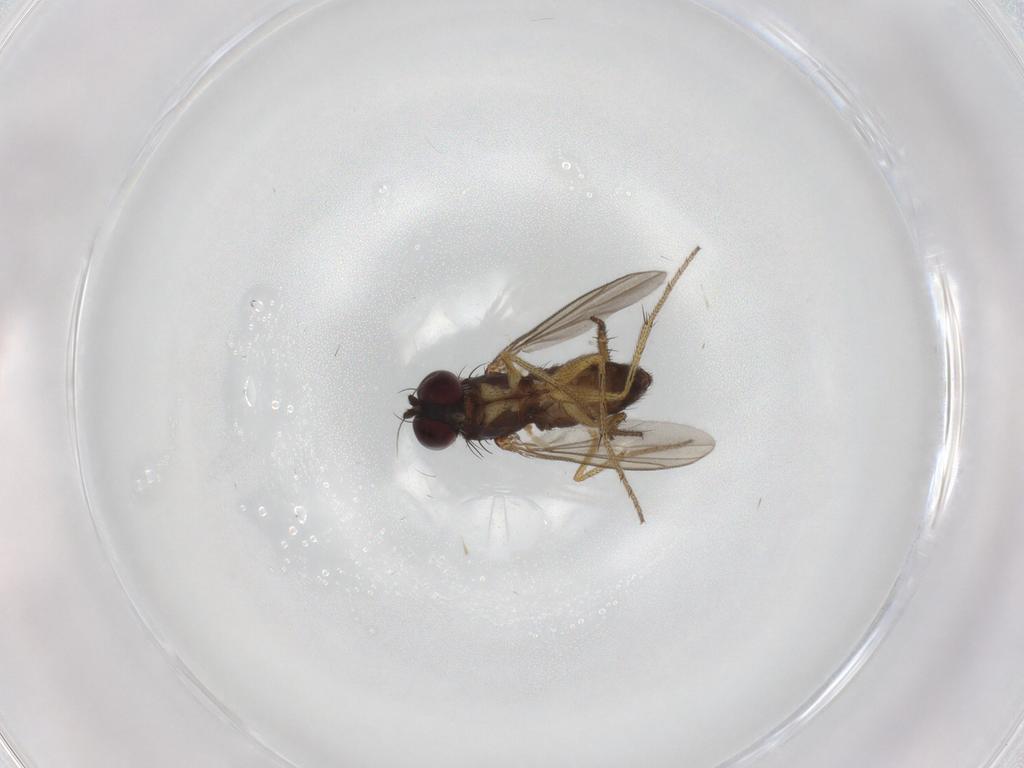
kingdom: Animalia
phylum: Arthropoda
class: Insecta
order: Diptera
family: Dolichopodidae
